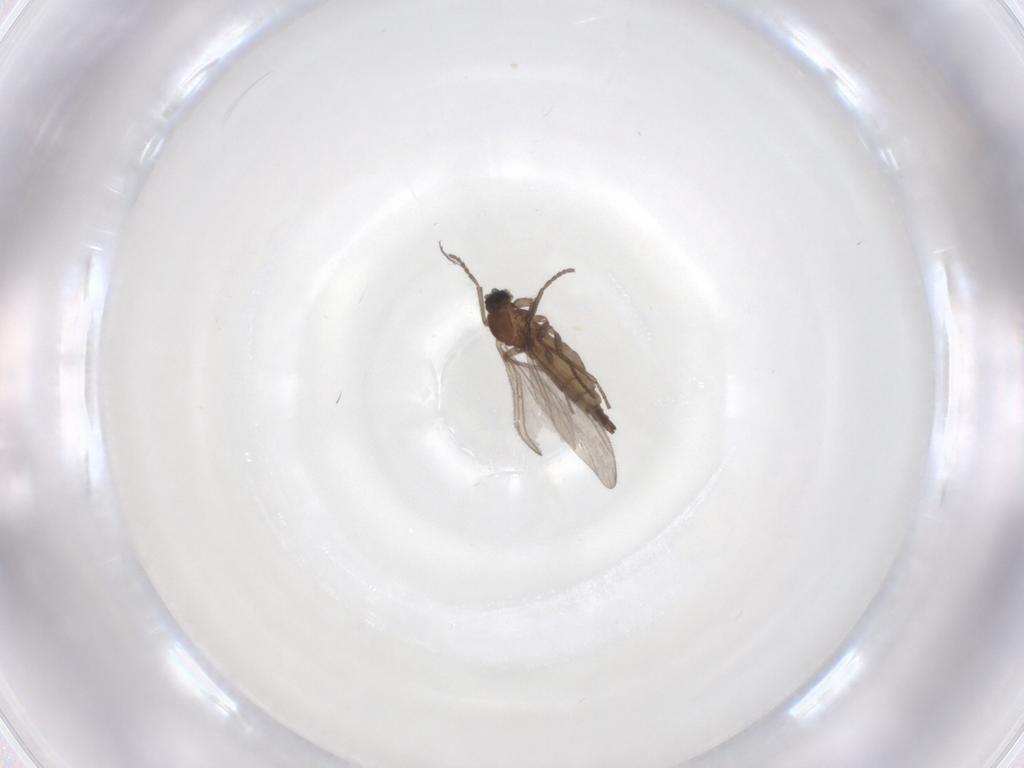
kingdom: Animalia
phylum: Arthropoda
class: Insecta
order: Diptera
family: Sciaridae
